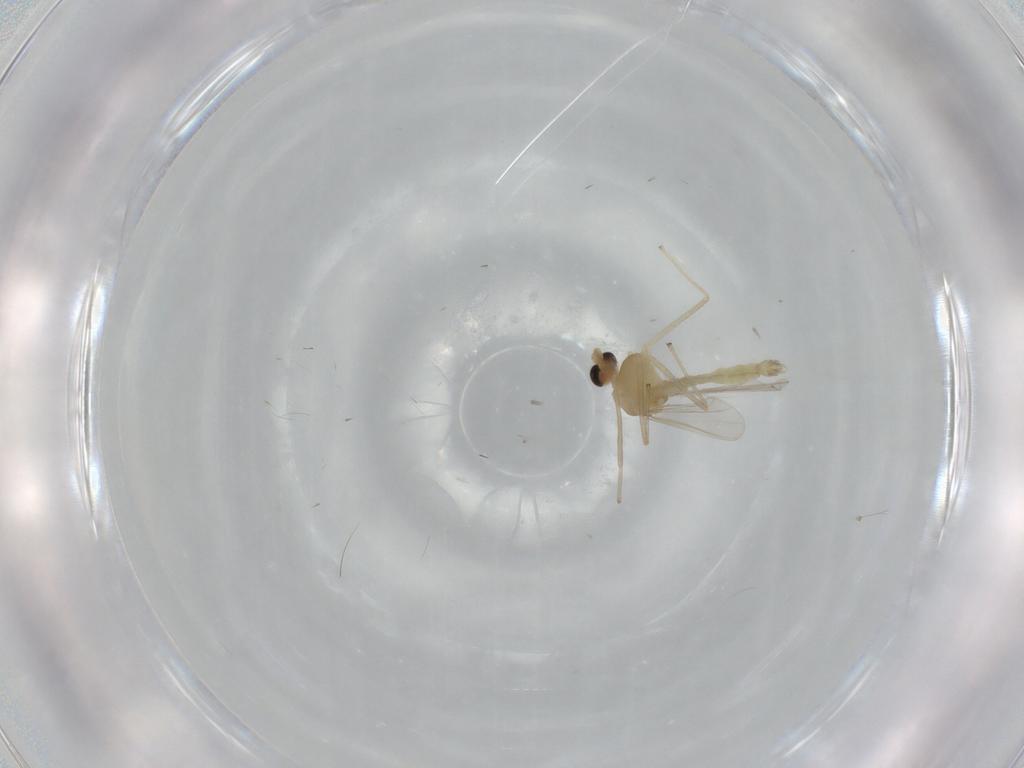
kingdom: Animalia
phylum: Arthropoda
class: Insecta
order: Diptera
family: Chironomidae
